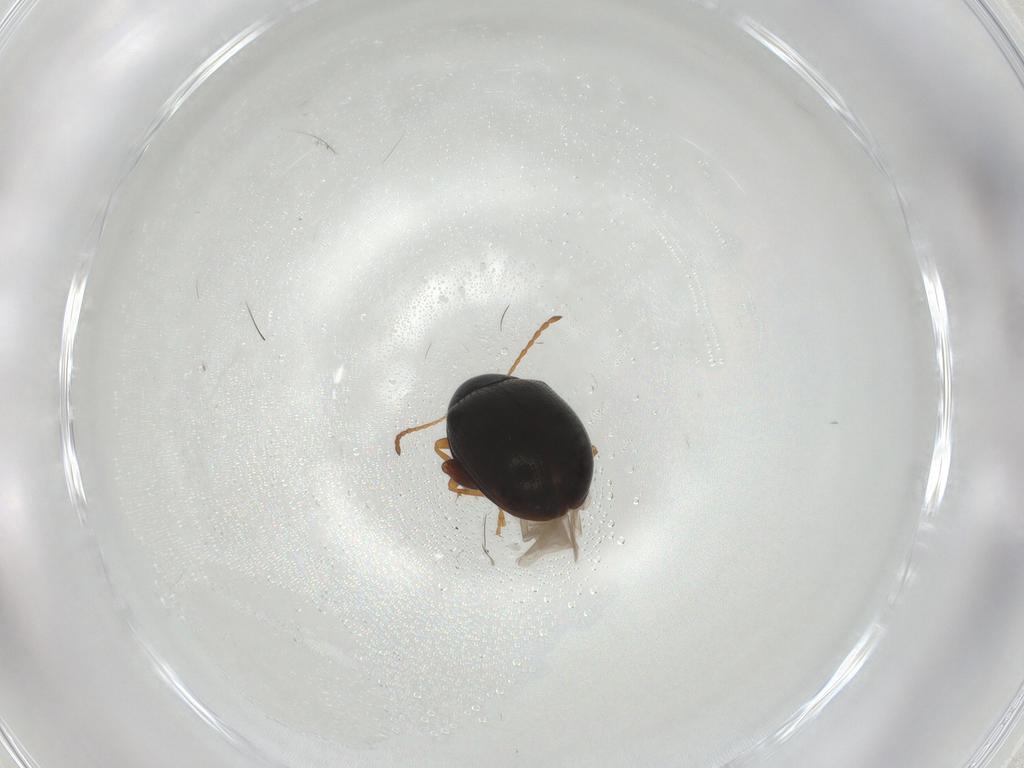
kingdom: Animalia
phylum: Arthropoda
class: Insecta
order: Coleoptera
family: Chrysomelidae
